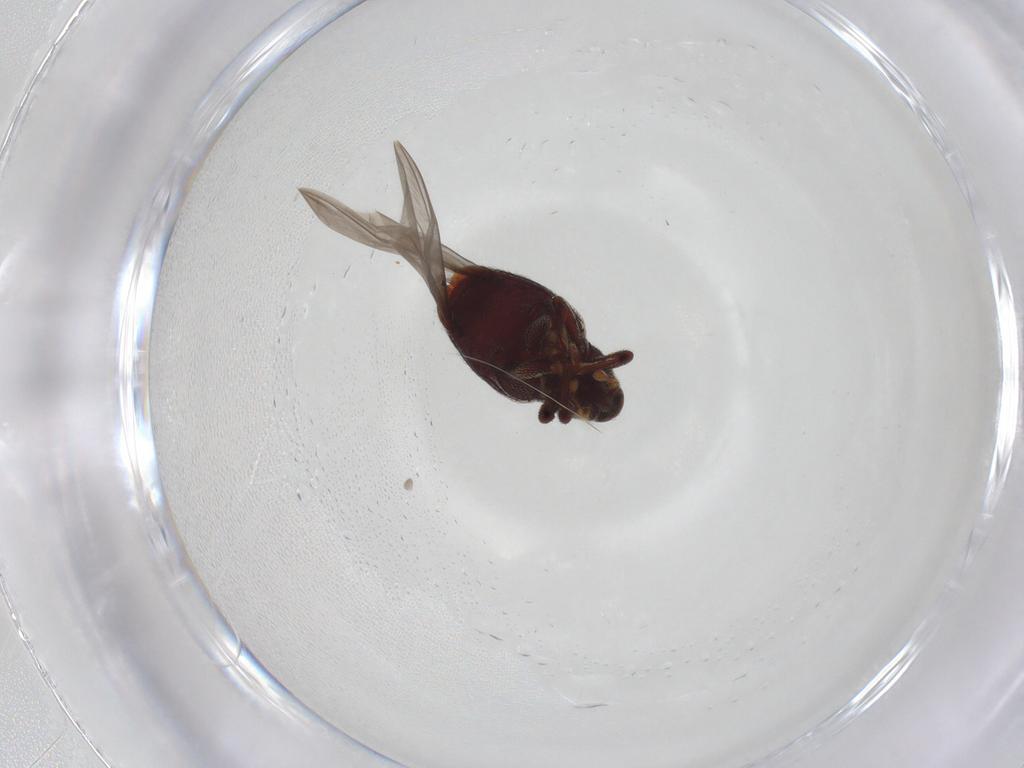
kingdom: Animalia
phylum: Arthropoda
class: Insecta
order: Coleoptera
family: Curculionidae
